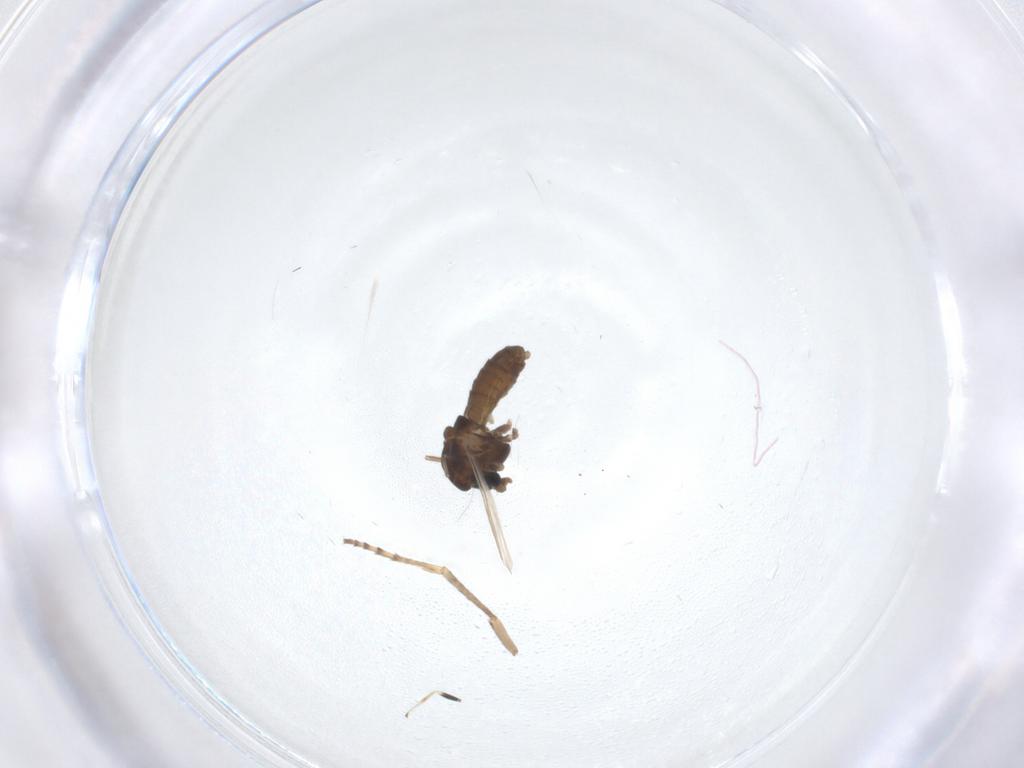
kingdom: Animalia
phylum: Arthropoda
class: Insecta
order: Diptera
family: Chironomidae
